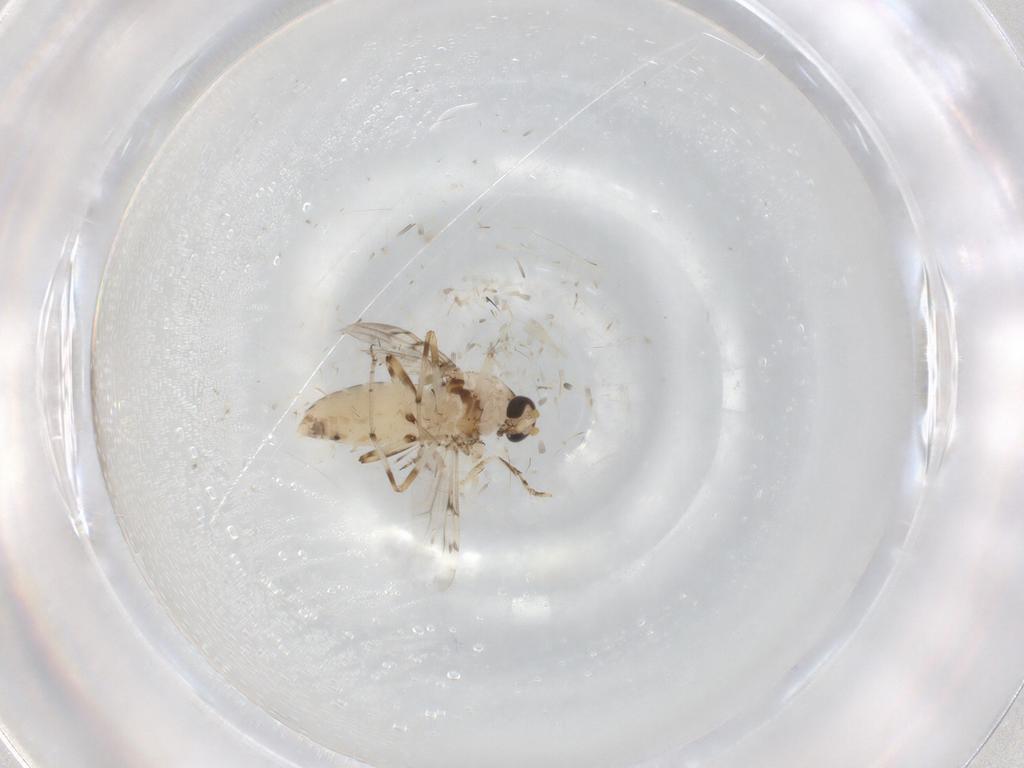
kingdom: Animalia
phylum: Arthropoda
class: Insecta
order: Diptera
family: Ceratopogonidae
